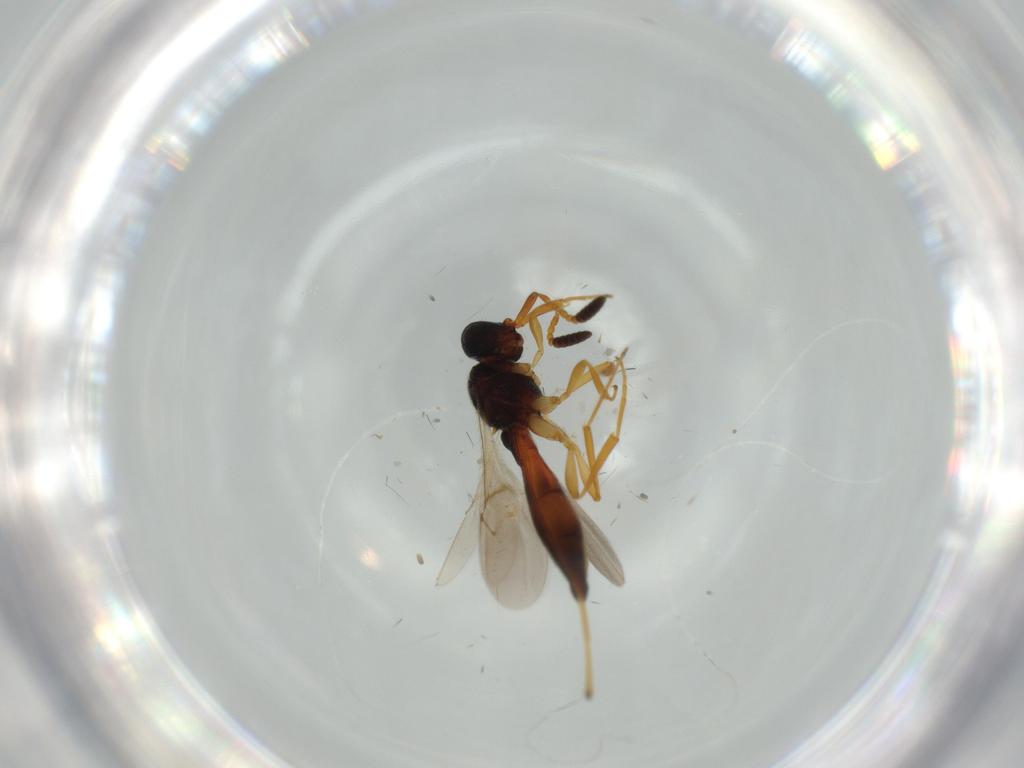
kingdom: Animalia
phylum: Arthropoda
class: Insecta
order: Hymenoptera
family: Scelionidae
